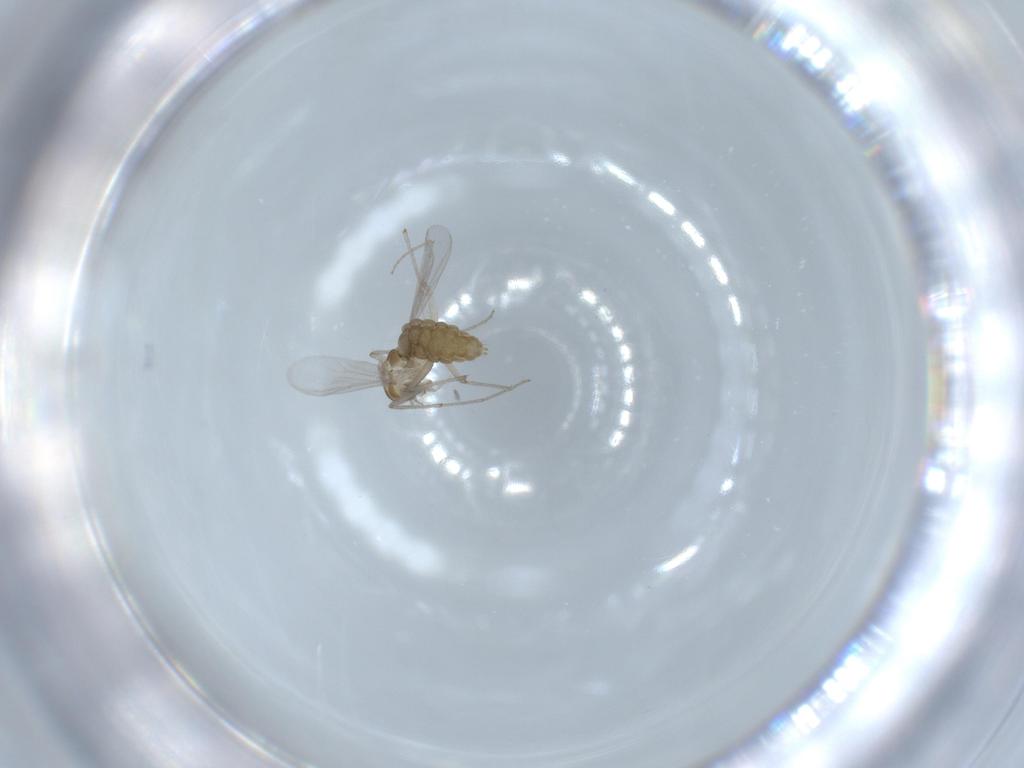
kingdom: Animalia
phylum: Arthropoda
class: Insecta
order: Diptera
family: Chironomidae
